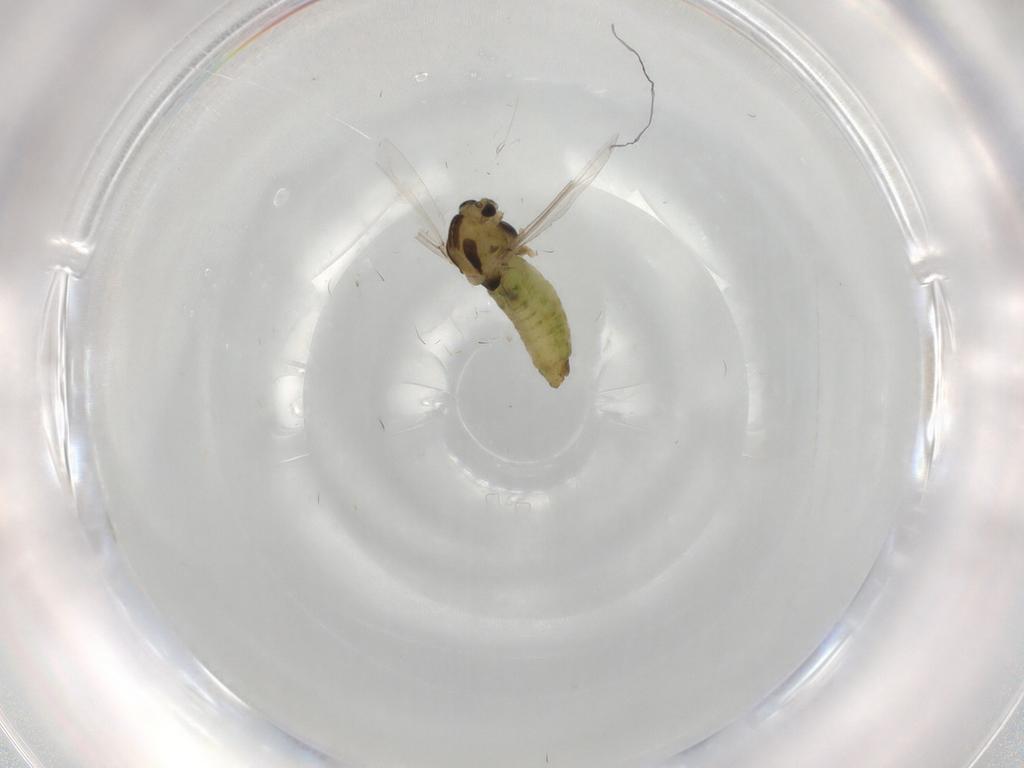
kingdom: Animalia
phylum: Arthropoda
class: Insecta
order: Diptera
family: Chironomidae
